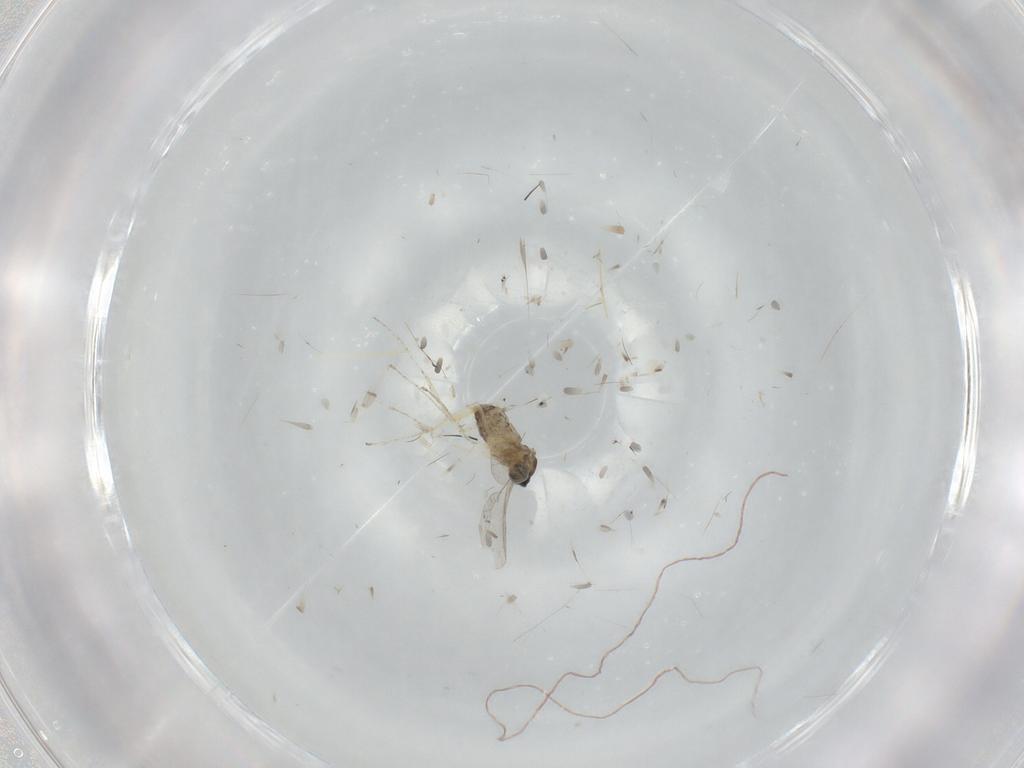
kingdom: Animalia
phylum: Arthropoda
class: Insecta
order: Diptera
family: Cecidomyiidae
